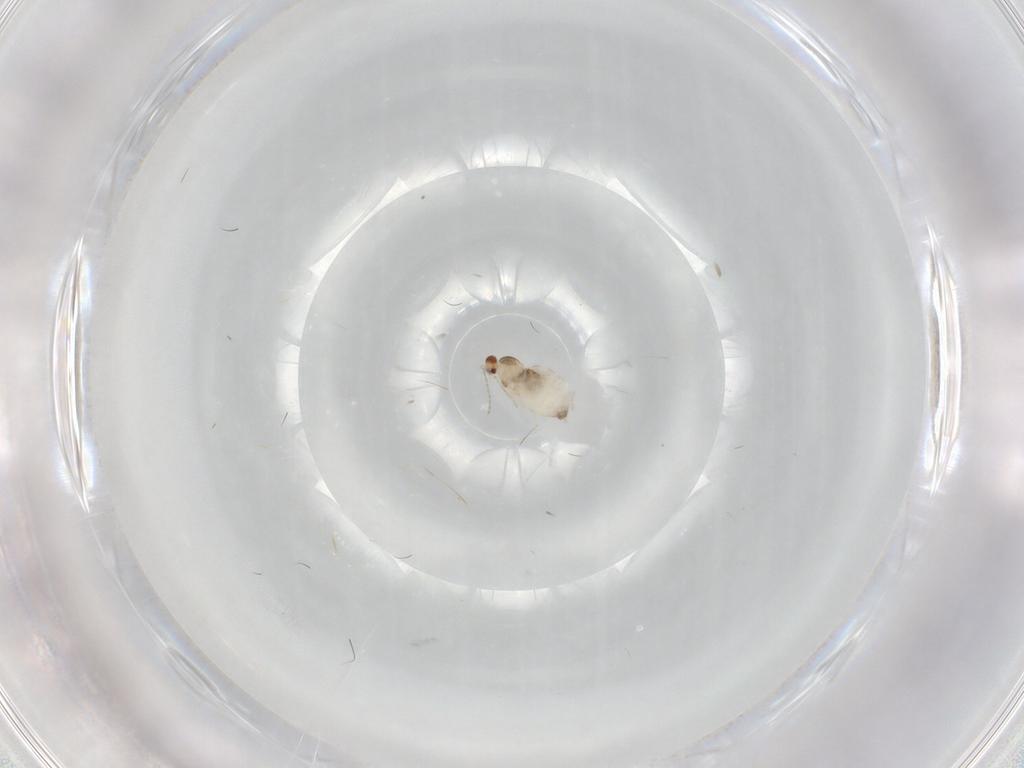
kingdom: Animalia
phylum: Arthropoda
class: Insecta
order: Diptera
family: Cecidomyiidae
